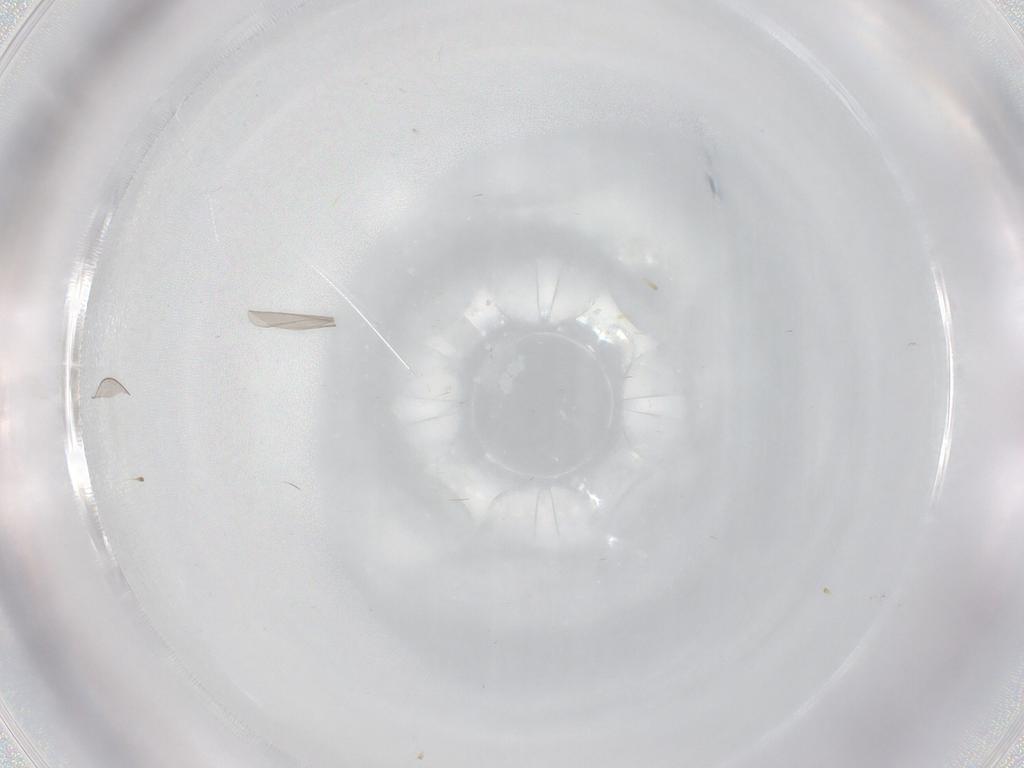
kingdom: Animalia
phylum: Arthropoda
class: Insecta
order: Diptera
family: Cecidomyiidae
